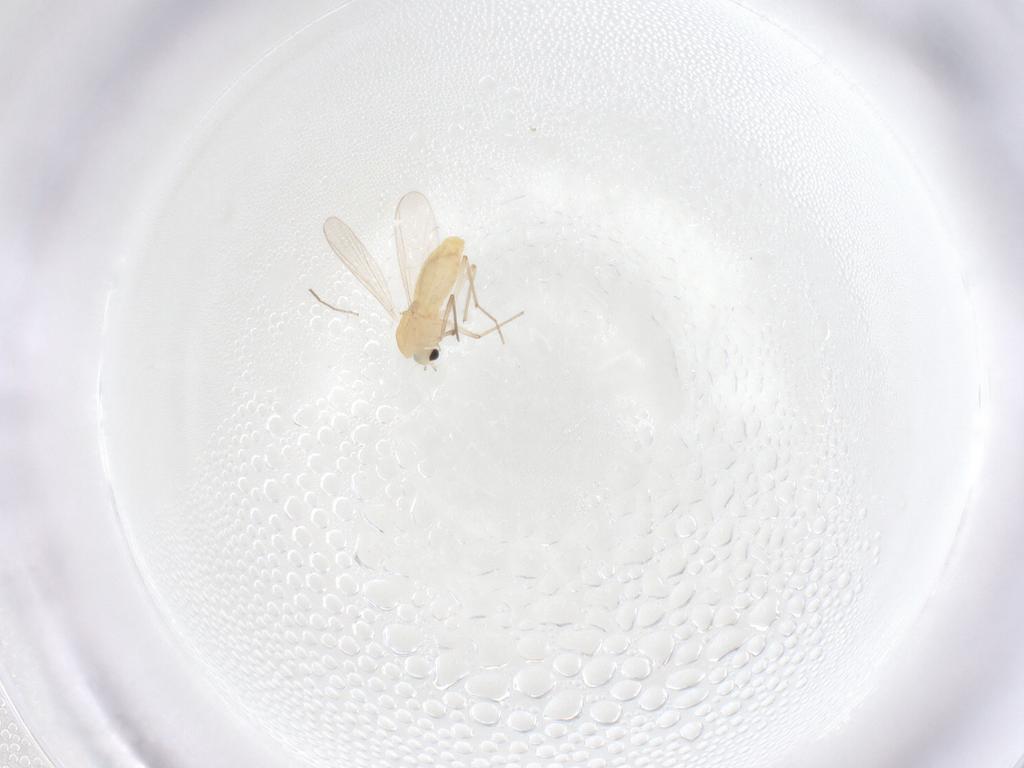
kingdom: Animalia
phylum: Arthropoda
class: Insecta
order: Diptera
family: Chironomidae
